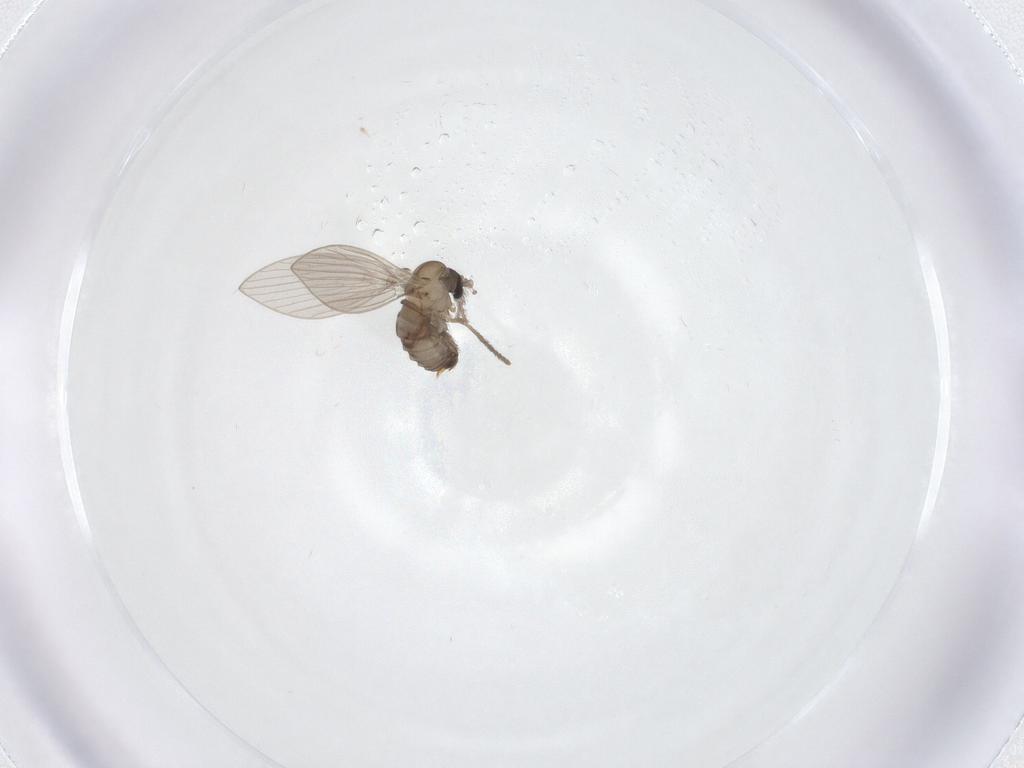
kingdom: Animalia
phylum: Arthropoda
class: Insecta
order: Diptera
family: Psychodidae
